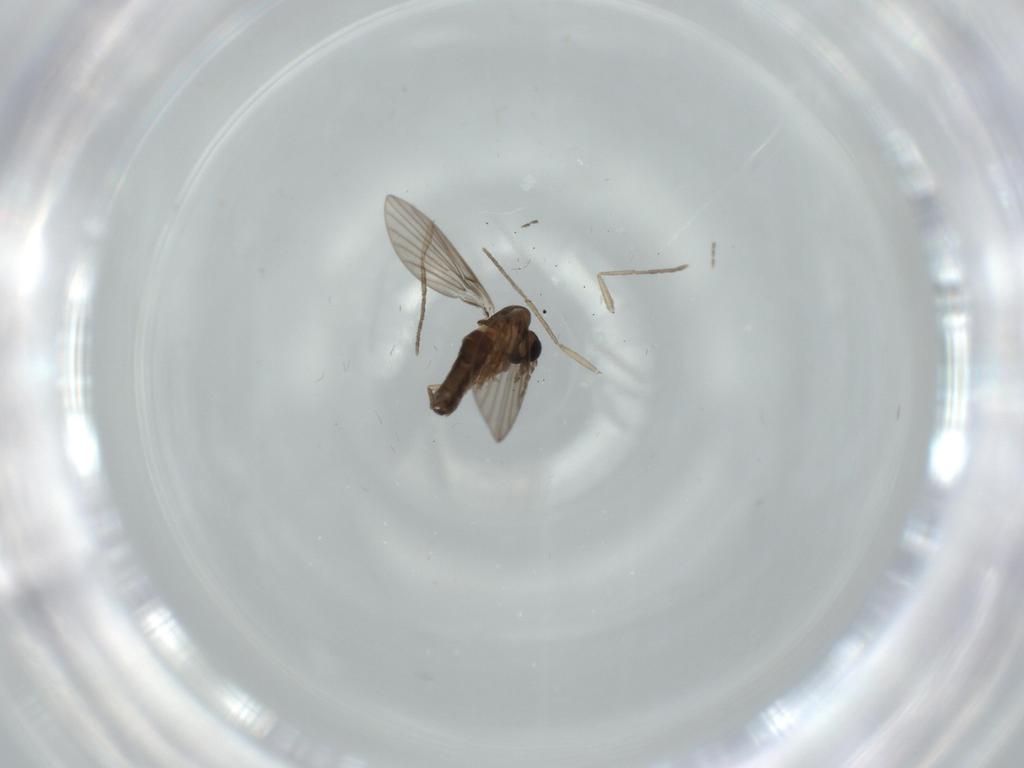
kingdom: Animalia
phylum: Arthropoda
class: Insecta
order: Diptera
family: Psychodidae
